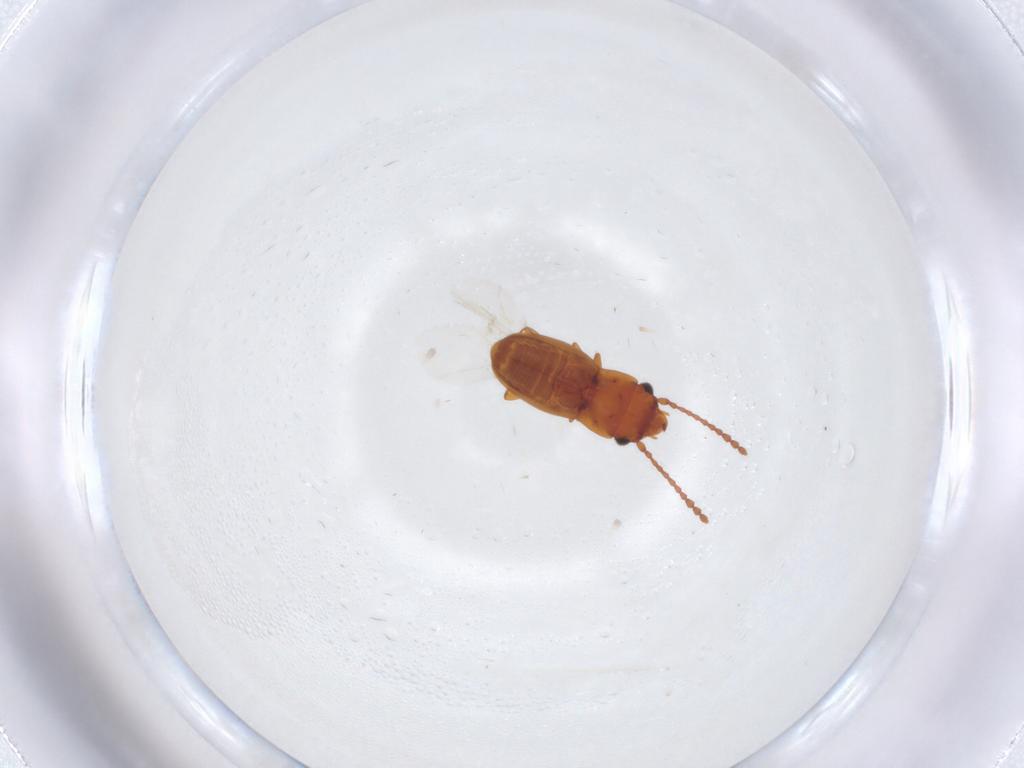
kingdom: Animalia
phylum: Arthropoda
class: Insecta
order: Coleoptera
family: Laemophloeidae
